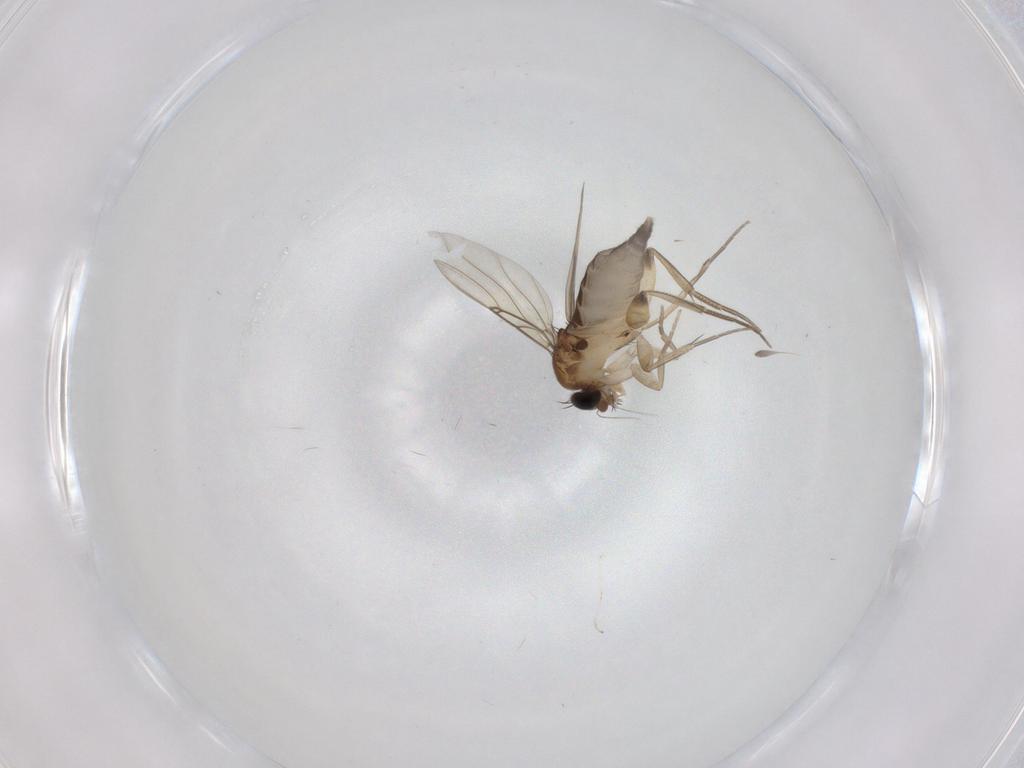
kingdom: Animalia
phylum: Arthropoda
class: Insecta
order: Diptera
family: Phoridae
